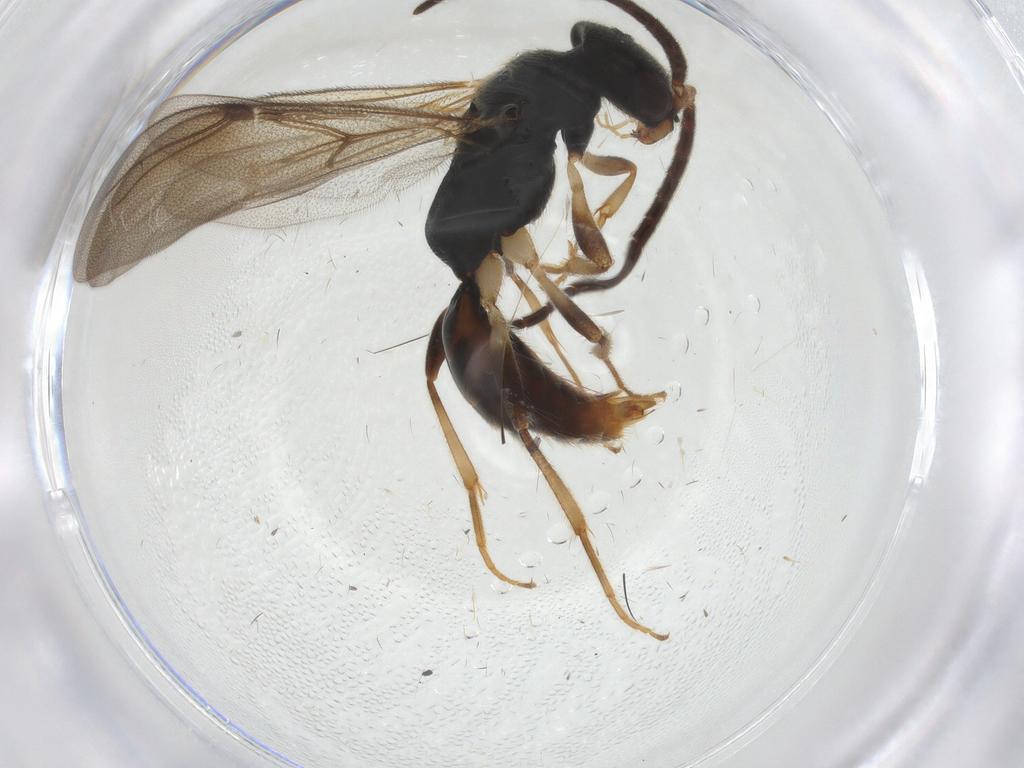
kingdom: Animalia
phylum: Arthropoda
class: Insecta
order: Hymenoptera
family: Bethylidae
